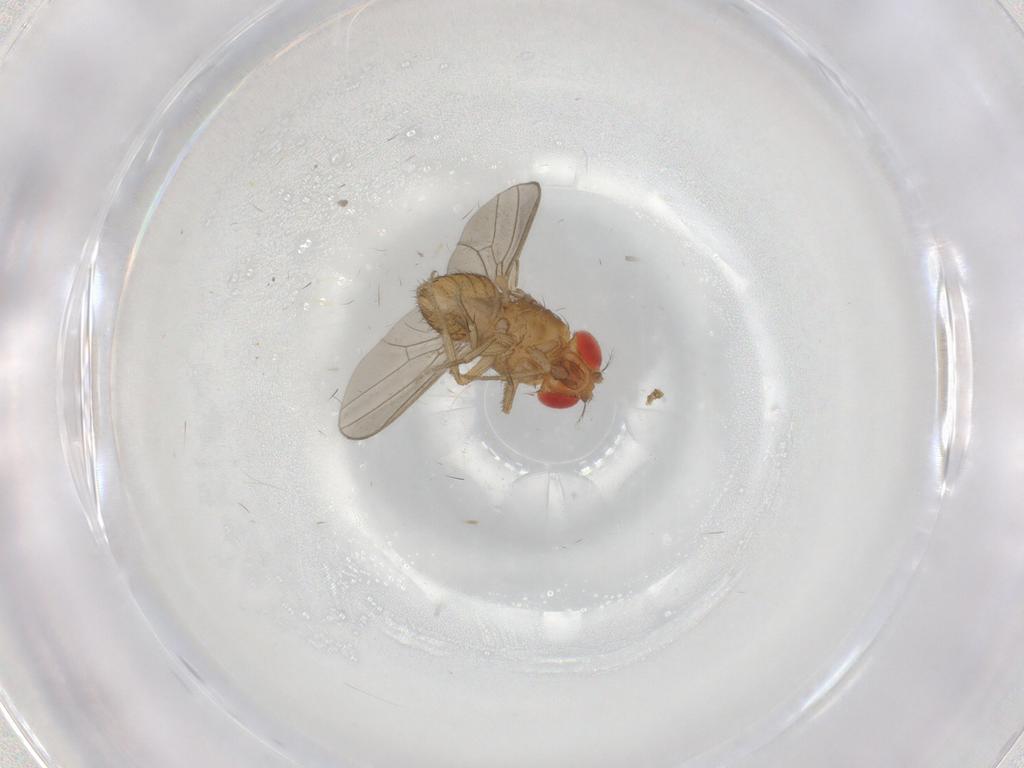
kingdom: Animalia
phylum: Arthropoda
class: Insecta
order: Diptera
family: Drosophilidae
